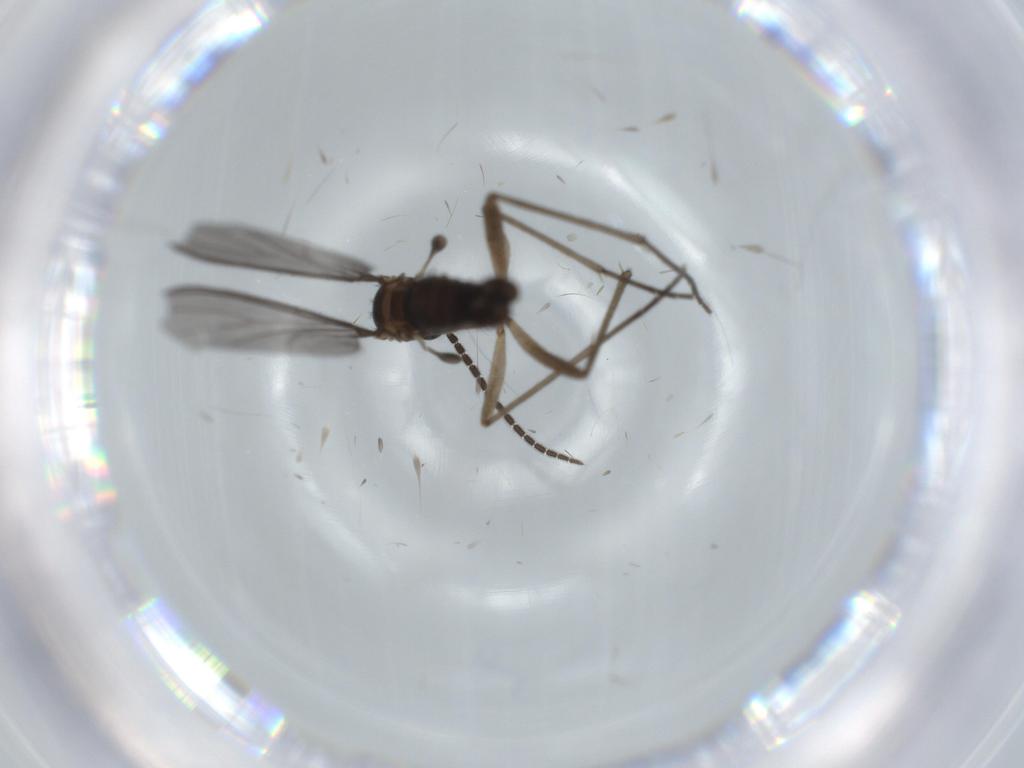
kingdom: Animalia
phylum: Arthropoda
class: Insecta
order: Diptera
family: Sciaridae
